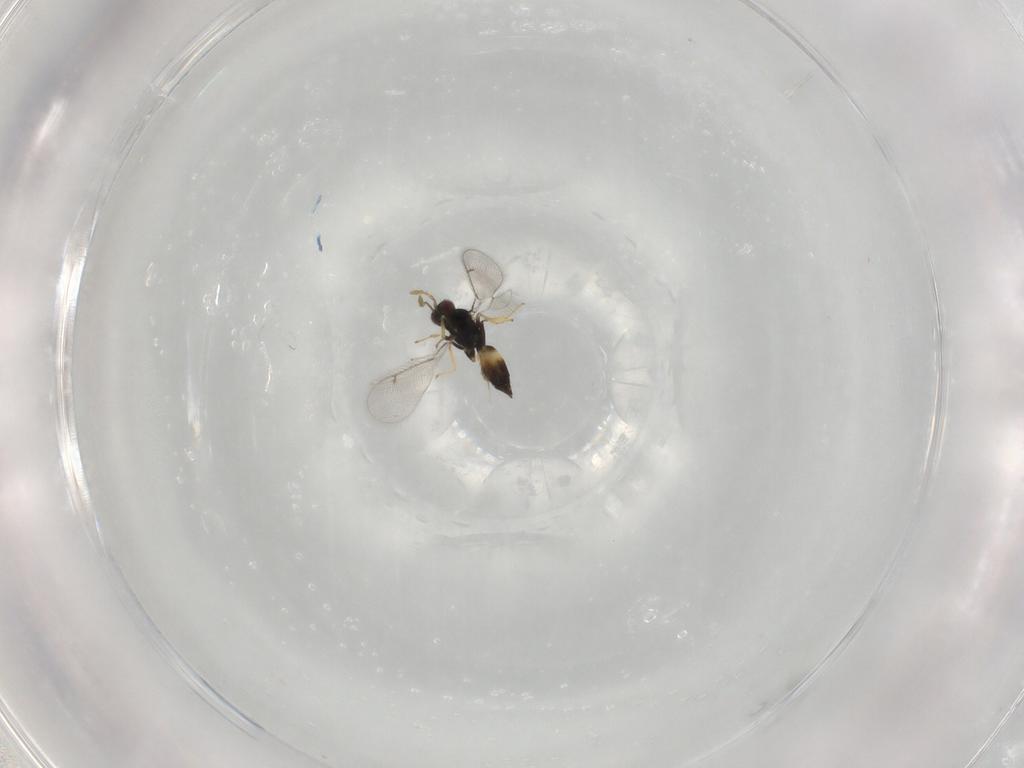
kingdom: Animalia
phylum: Arthropoda
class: Insecta
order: Hymenoptera
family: Eulophidae
